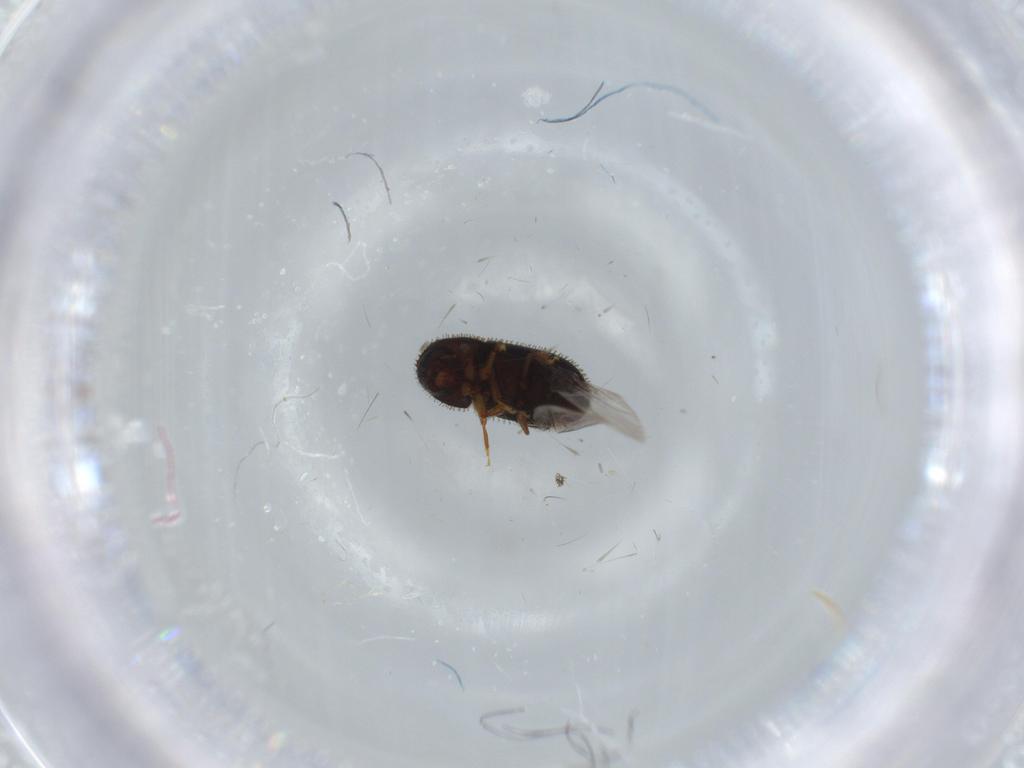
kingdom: Animalia
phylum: Arthropoda
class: Insecta
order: Coleoptera
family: Curculionidae
